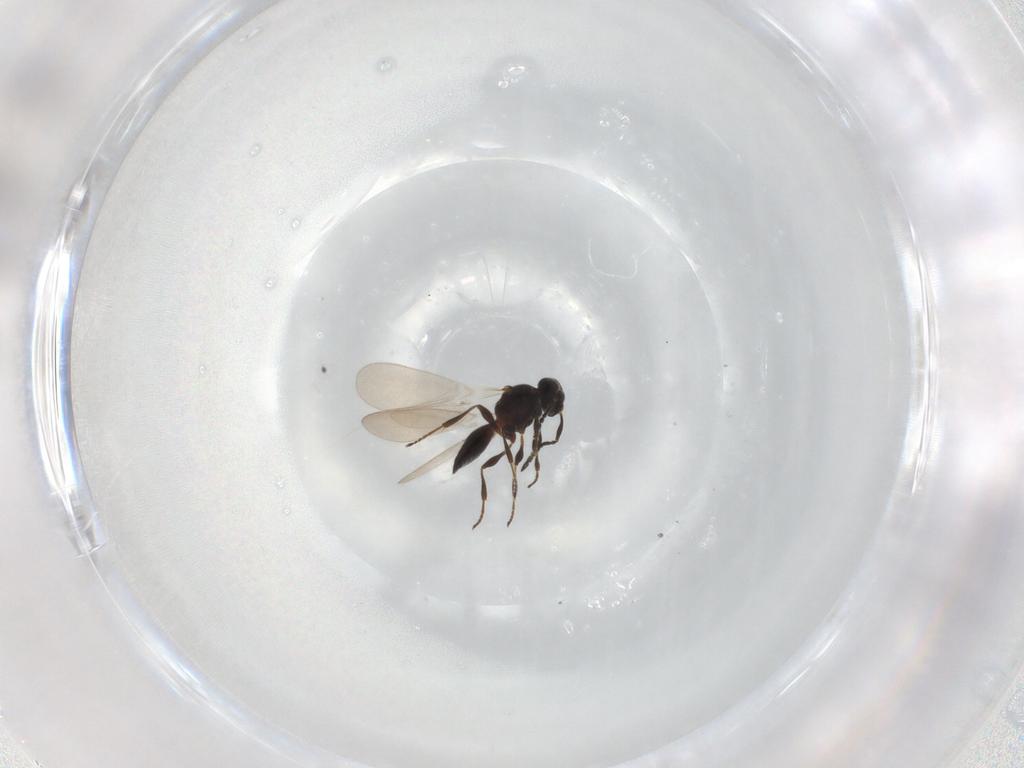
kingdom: Animalia
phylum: Arthropoda
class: Insecta
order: Hymenoptera
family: Platygastridae
